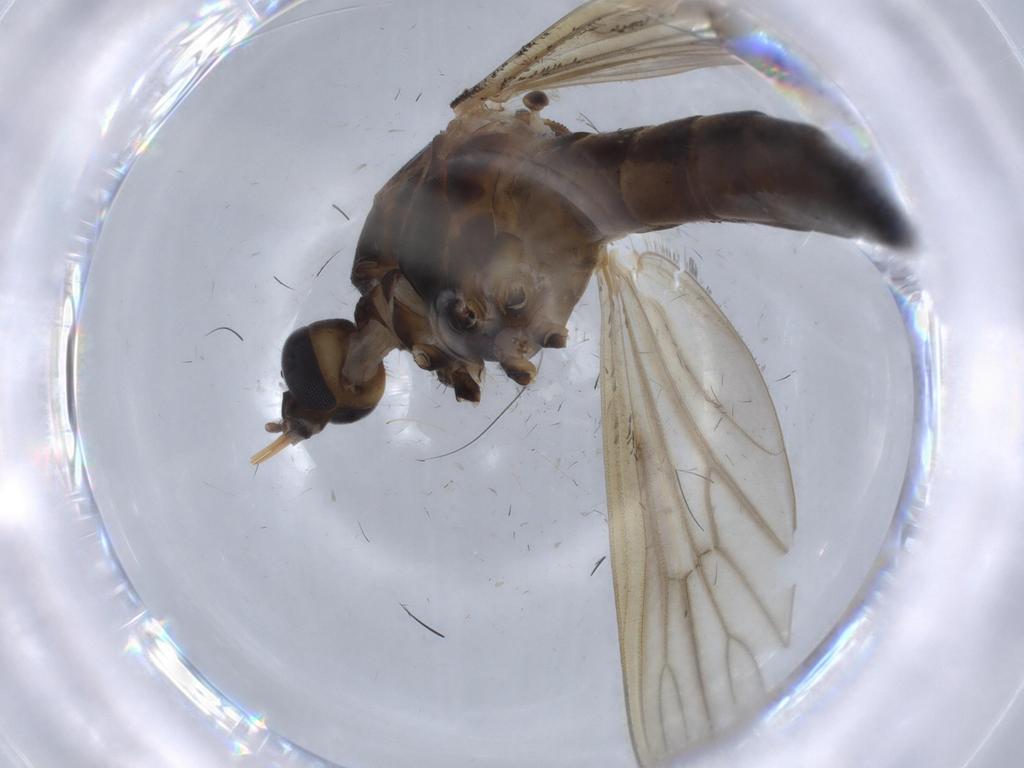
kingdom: Animalia
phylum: Arthropoda
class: Insecta
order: Diptera
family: Phoridae
